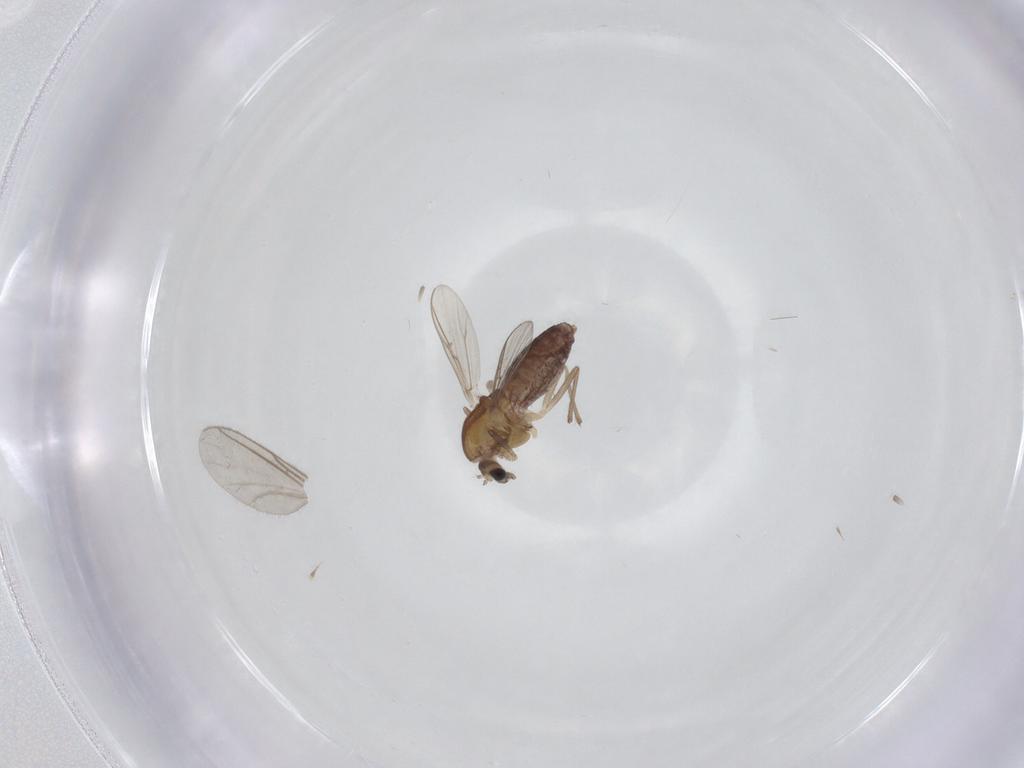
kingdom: Animalia
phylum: Arthropoda
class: Insecta
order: Diptera
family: Chironomidae
